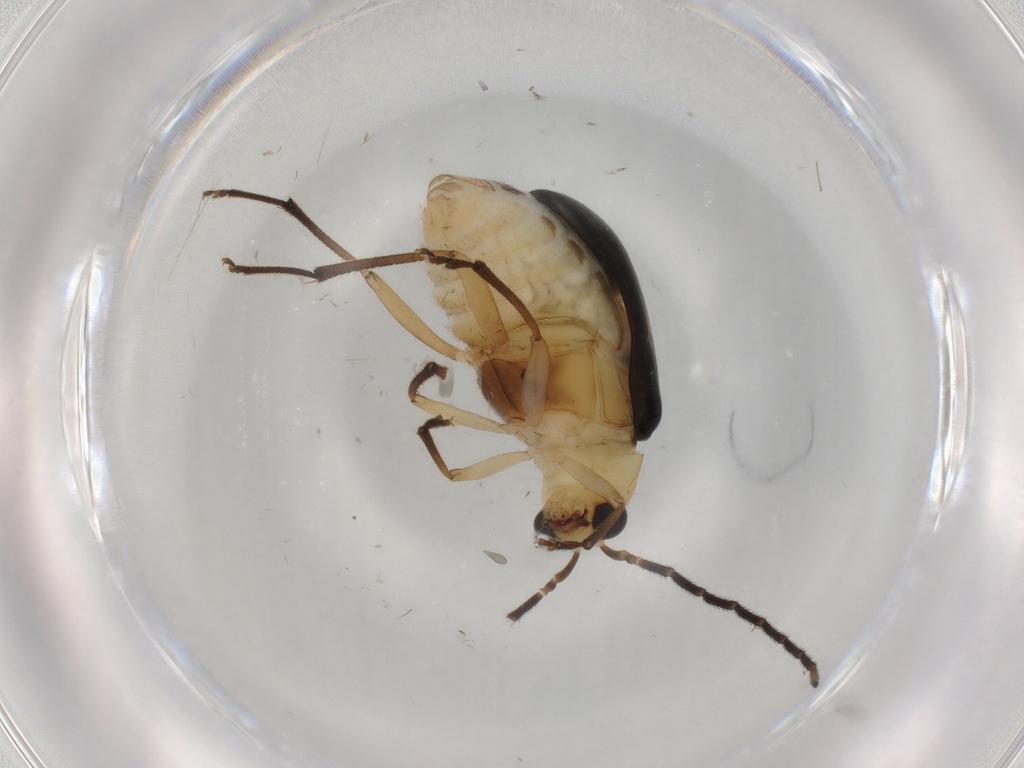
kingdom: Animalia
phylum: Arthropoda
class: Insecta
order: Coleoptera
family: Chrysomelidae
